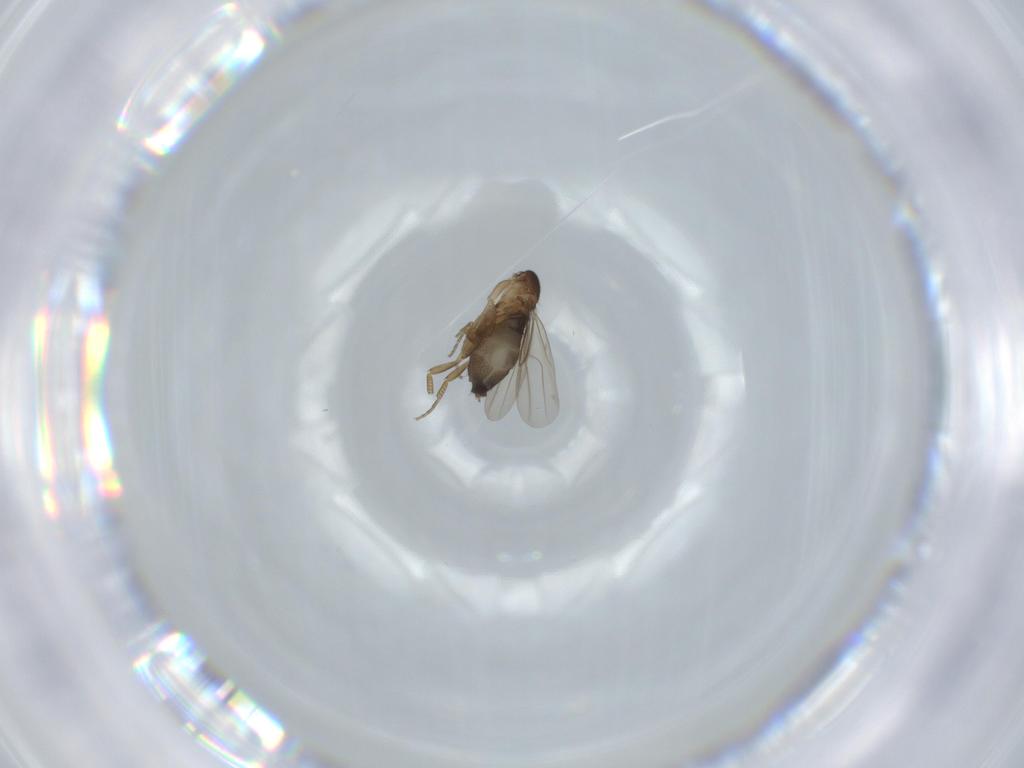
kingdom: Animalia
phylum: Arthropoda
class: Insecta
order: Diptera
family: Phoridae
